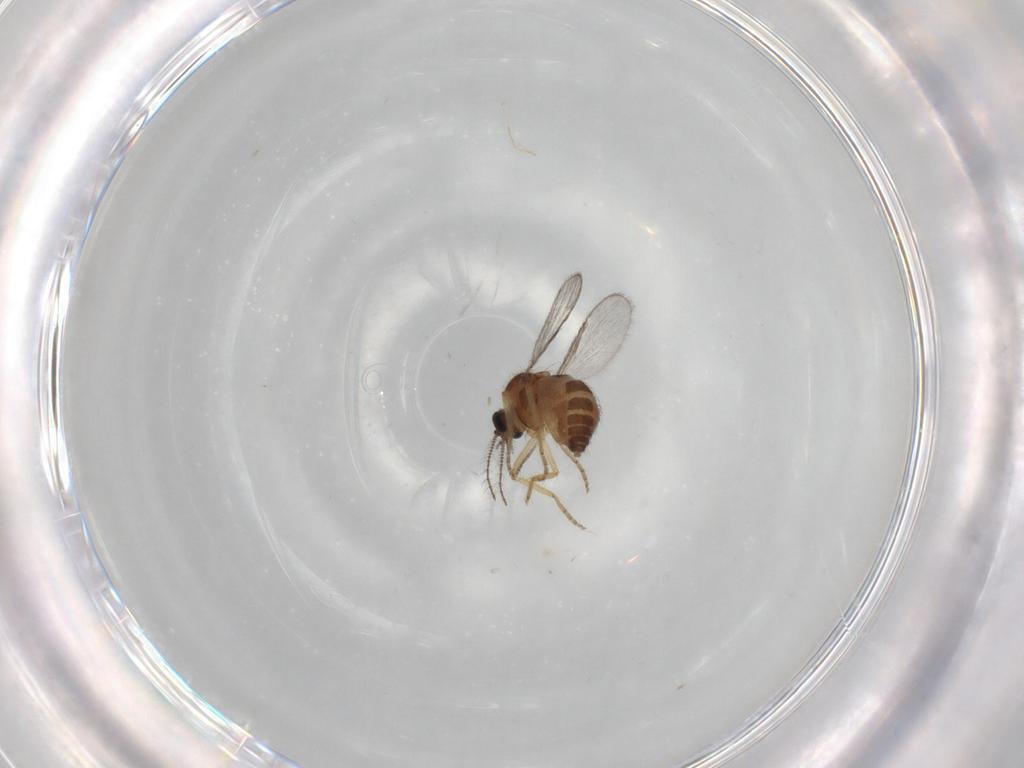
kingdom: Animalia
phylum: Arthropoda
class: Insecta
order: Diptera
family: Ceratopogonidae
